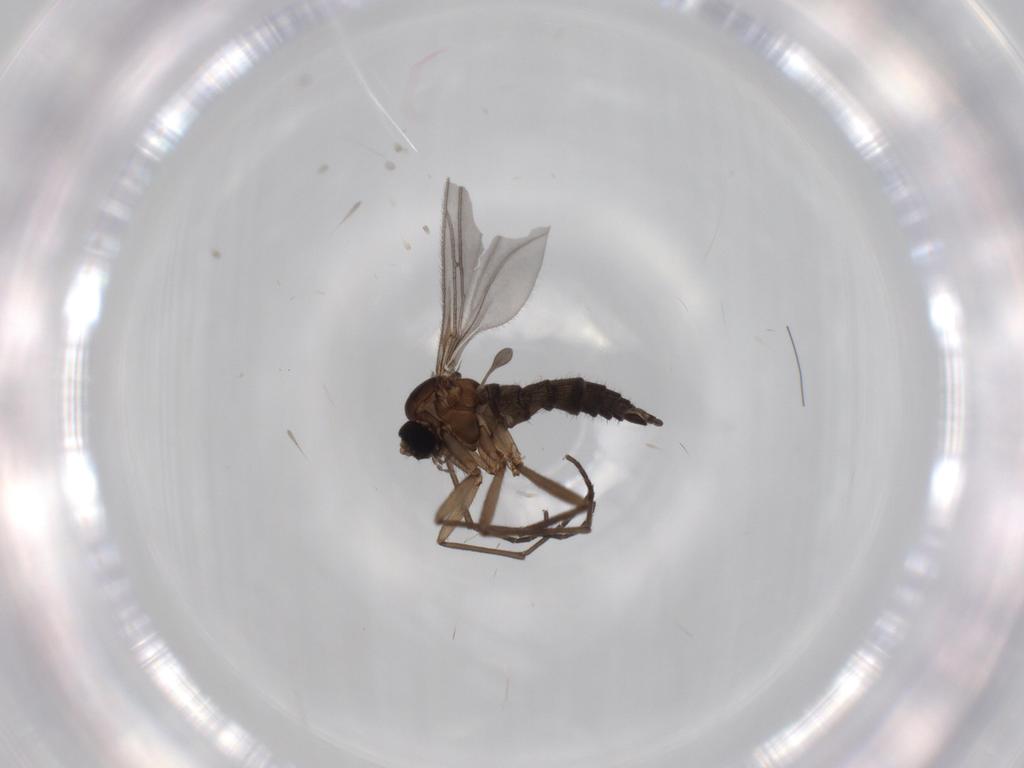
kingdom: Animalia
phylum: Arthropoda
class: Insecta
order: Diptera
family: Sciaridae
